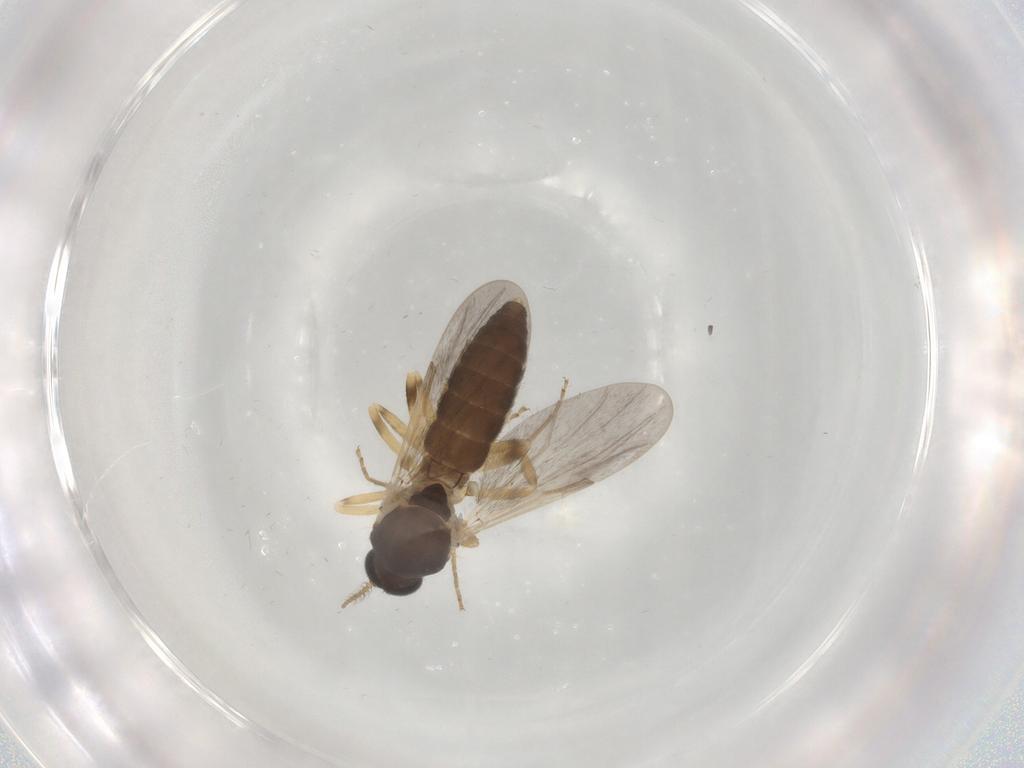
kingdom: Animalia
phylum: Arthropoda
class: Insecta
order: Diptera
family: Ceratopogonidae
